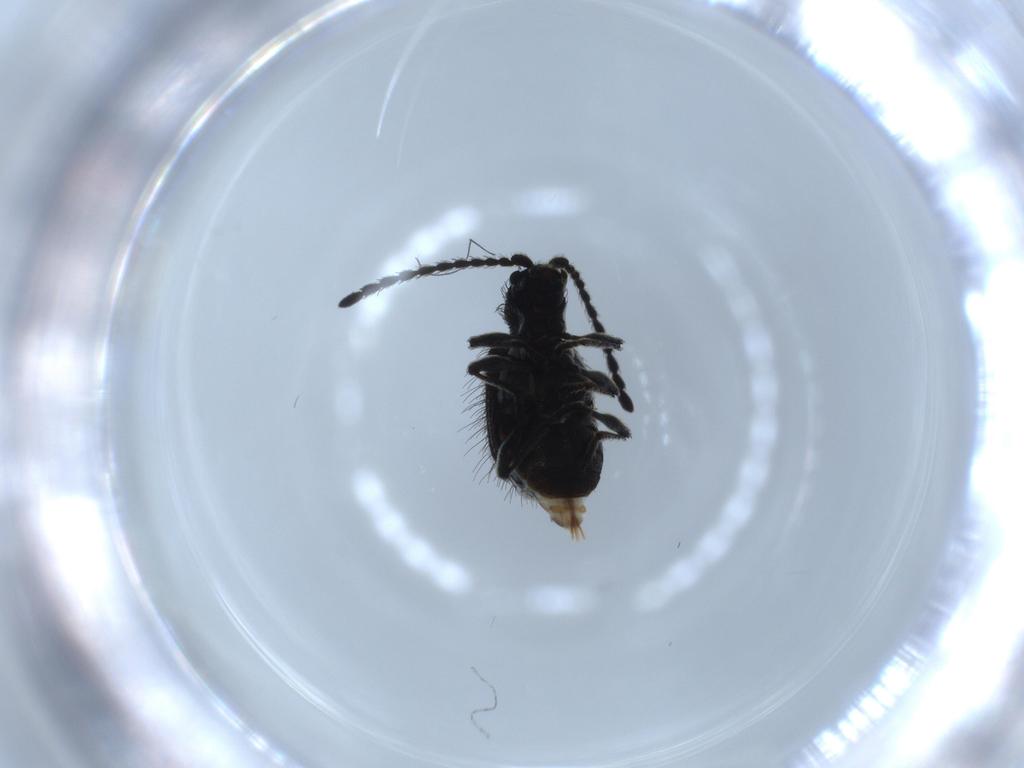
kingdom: Animalia
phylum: Arthropoda
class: Insecta
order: Coleoptera
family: Ptinidae
